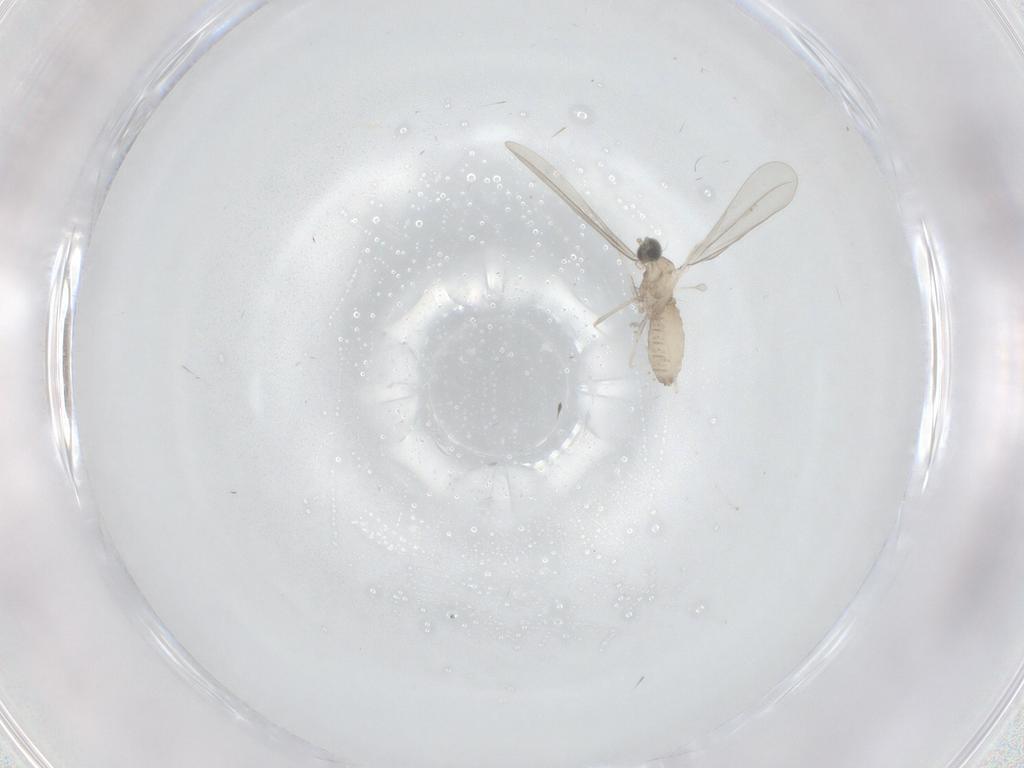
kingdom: Animalia
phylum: Arthropoda
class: Insecta
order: Diptera
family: Cecidomyiidae
